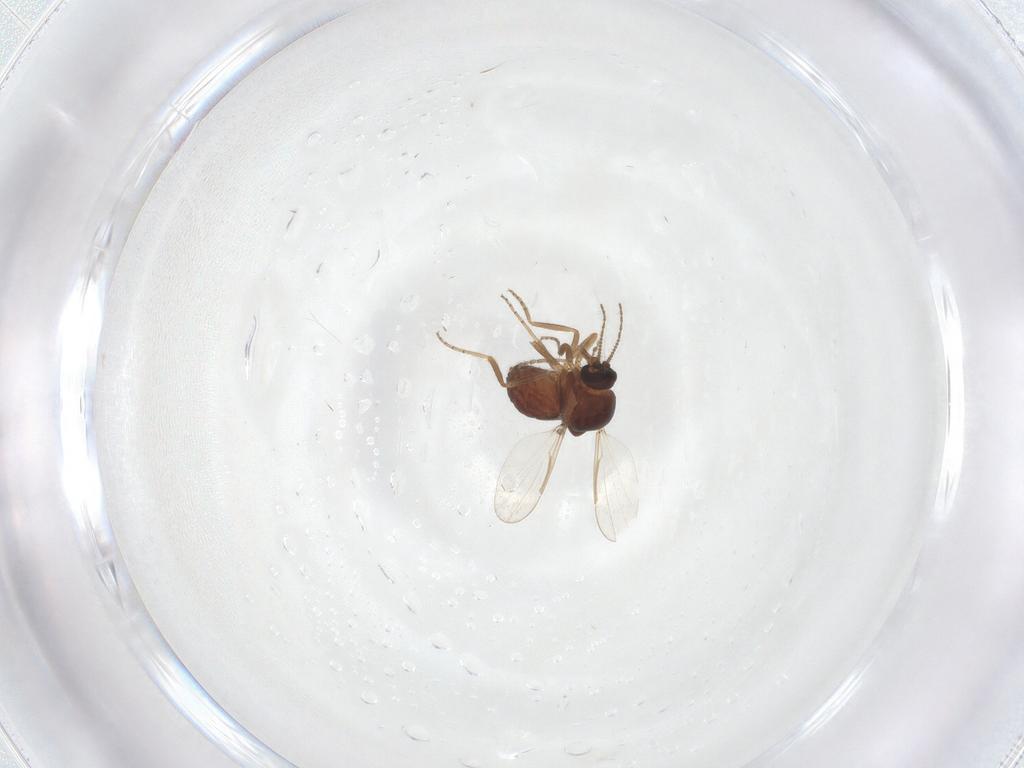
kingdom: Animalia
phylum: Arthropoda
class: Insecta
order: Diptera
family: Ceratopogonidae
